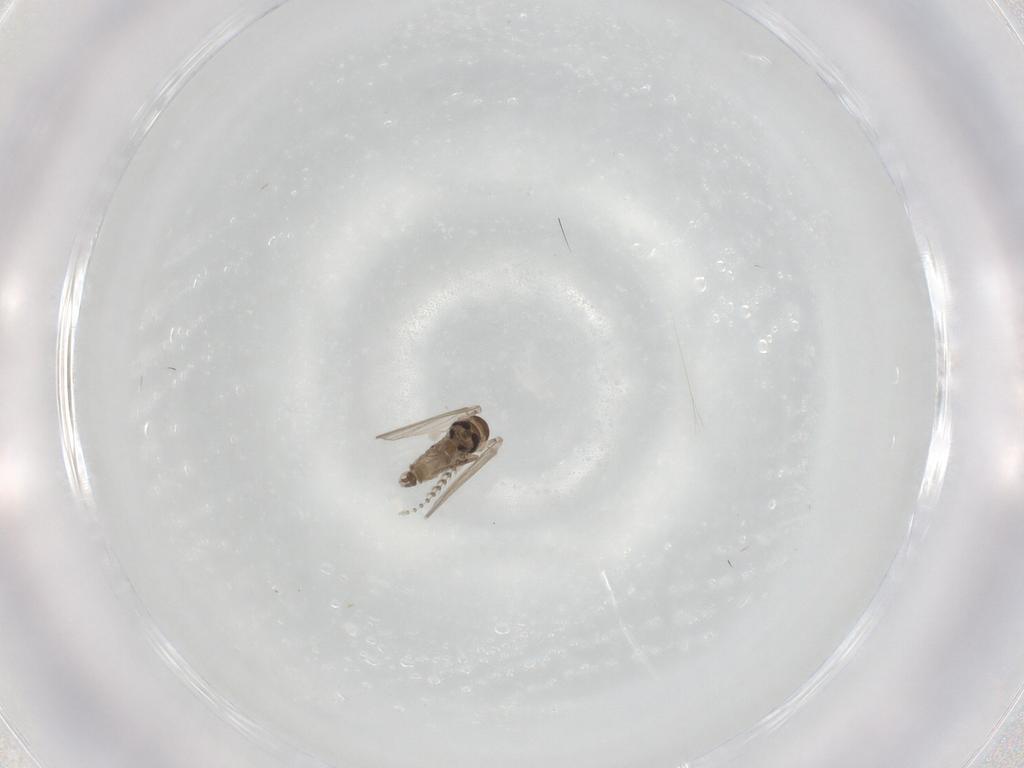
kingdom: Animalia
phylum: Arthropoda
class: Insecta
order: Diptera
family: Psychodidae
